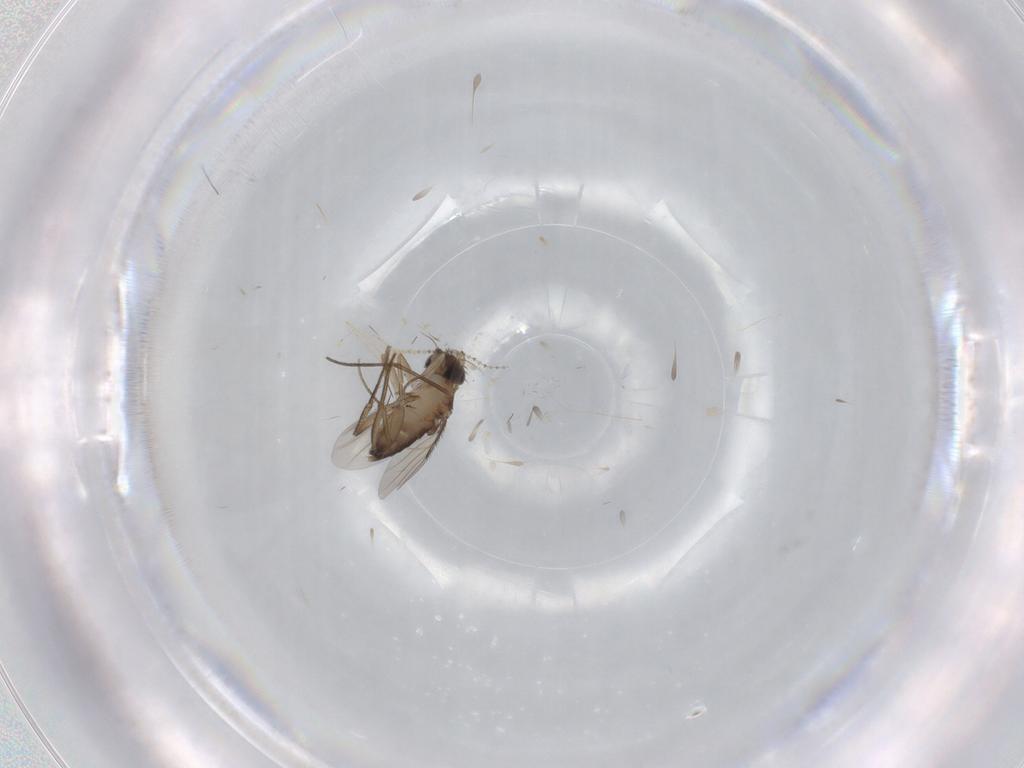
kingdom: Animalia
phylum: Arthropoda
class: Insecta
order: Diptera
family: Phoridae
